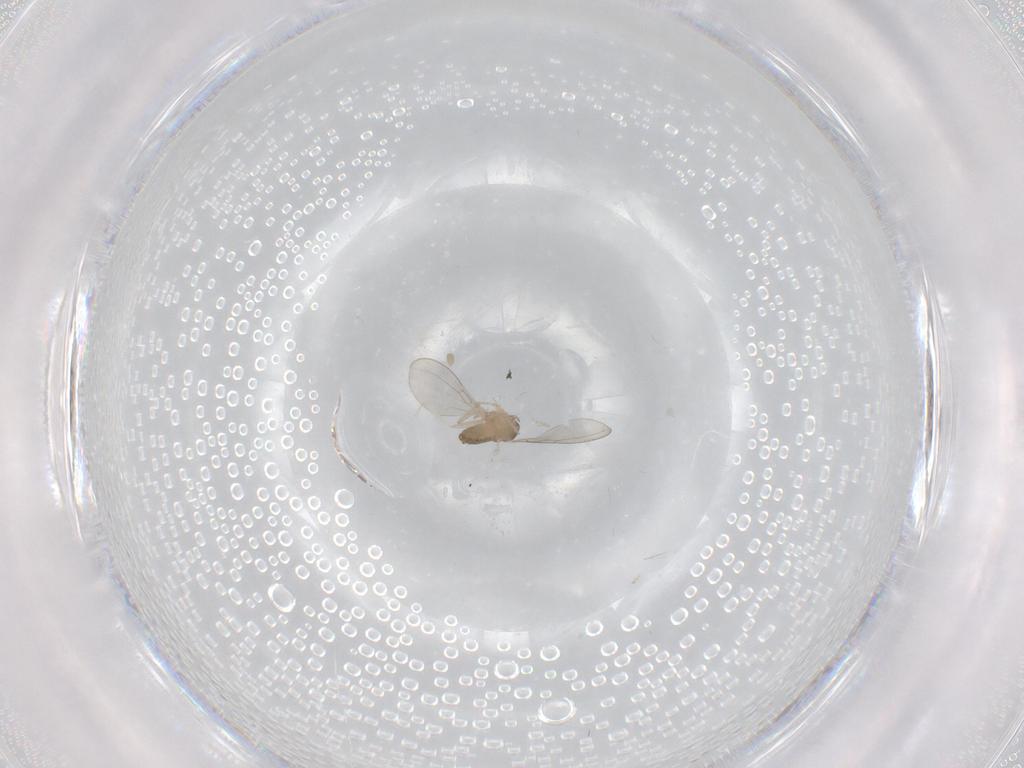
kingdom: Animalia
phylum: Arthropoda
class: Insecta
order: Diptera
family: Cecidomyiidae
